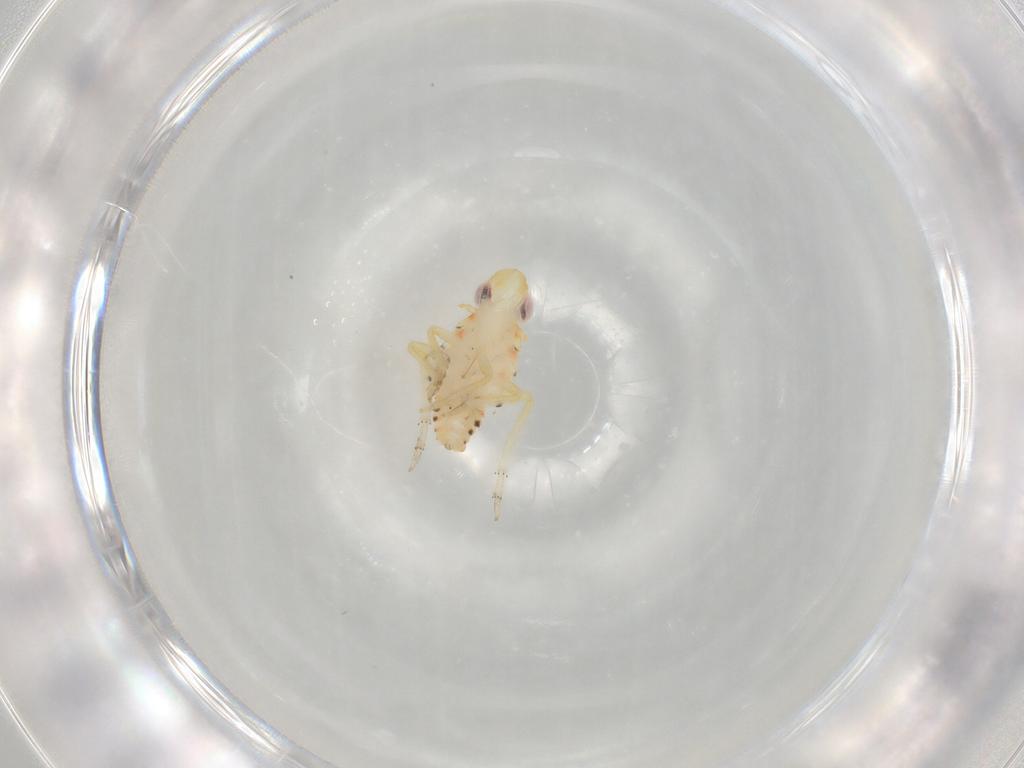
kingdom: Animalia
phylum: Arthropoda
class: Insecta
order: Hemiptera
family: Tropiduchidae
